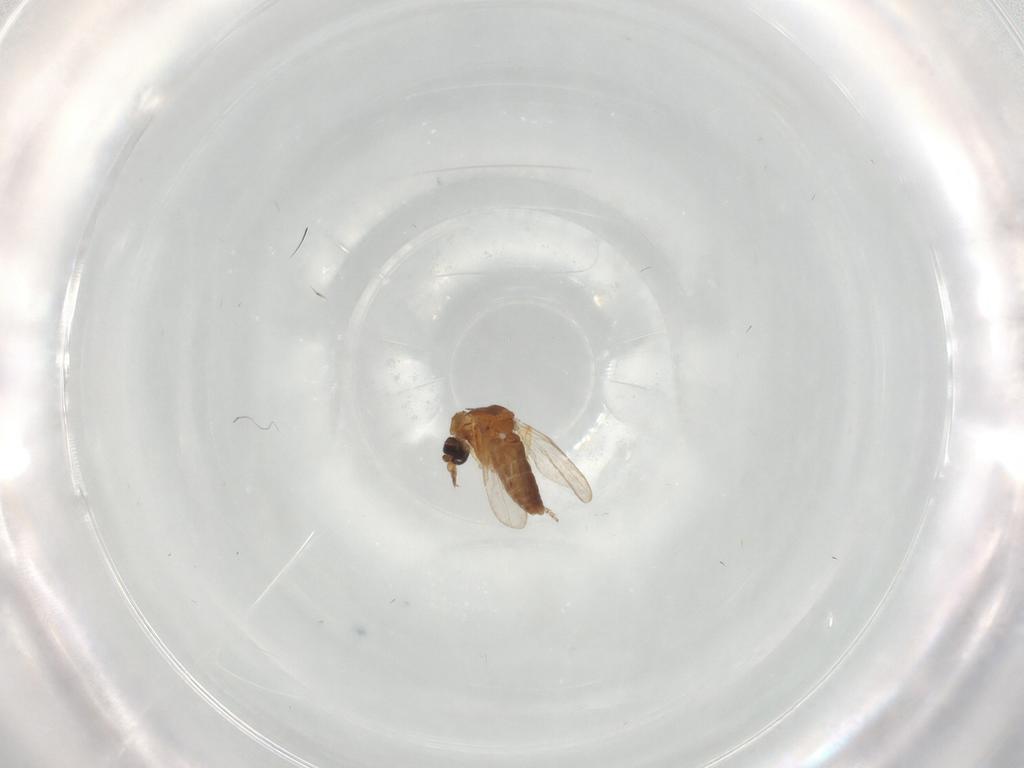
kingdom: Animalia
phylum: Arthropoda
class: Insecta
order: Diptera
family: Ceratopogonidae
